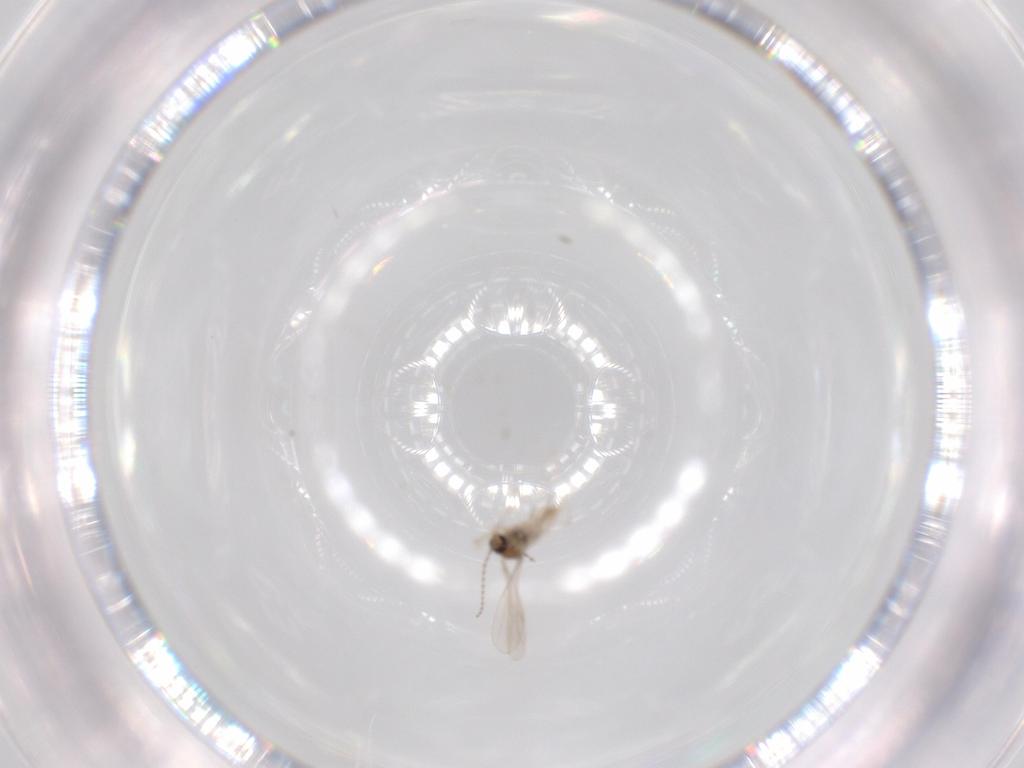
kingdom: Animalia
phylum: Arthropoda
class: Insecta
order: Diptera
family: Cecidomyiidae
